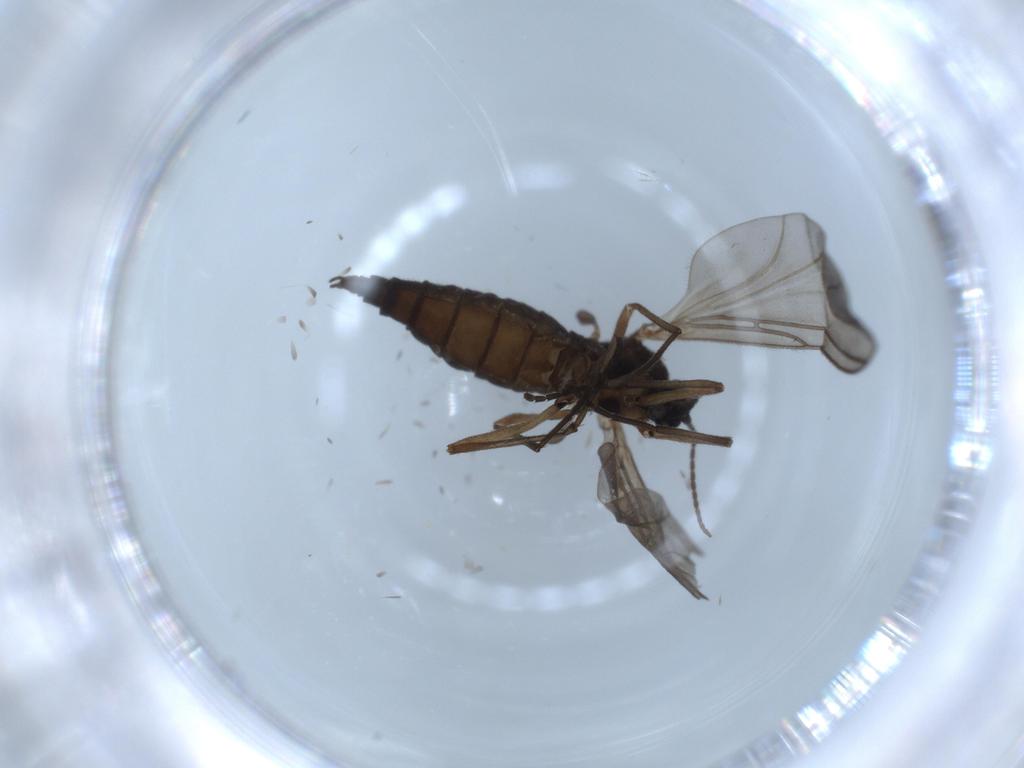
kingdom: Animalia
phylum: Arthropoda
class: Insecta
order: Diptera
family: Sciaridae
